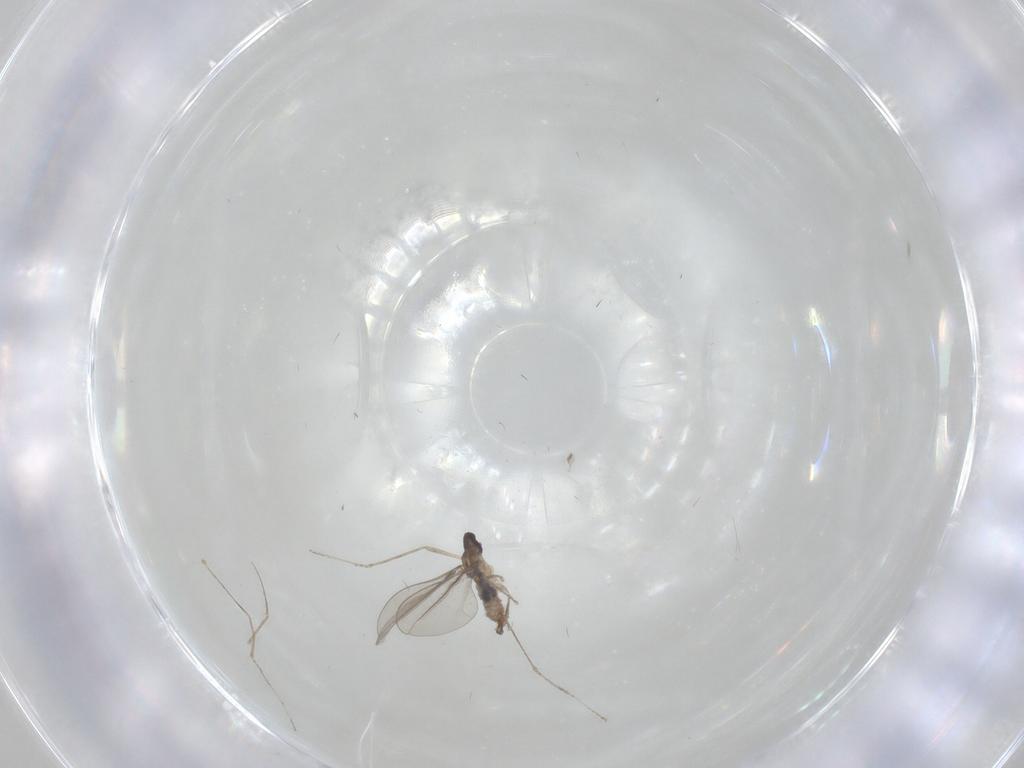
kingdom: Animalia
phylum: Arthropoda
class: Insecta
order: Diptera
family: Cecidomyiidae
